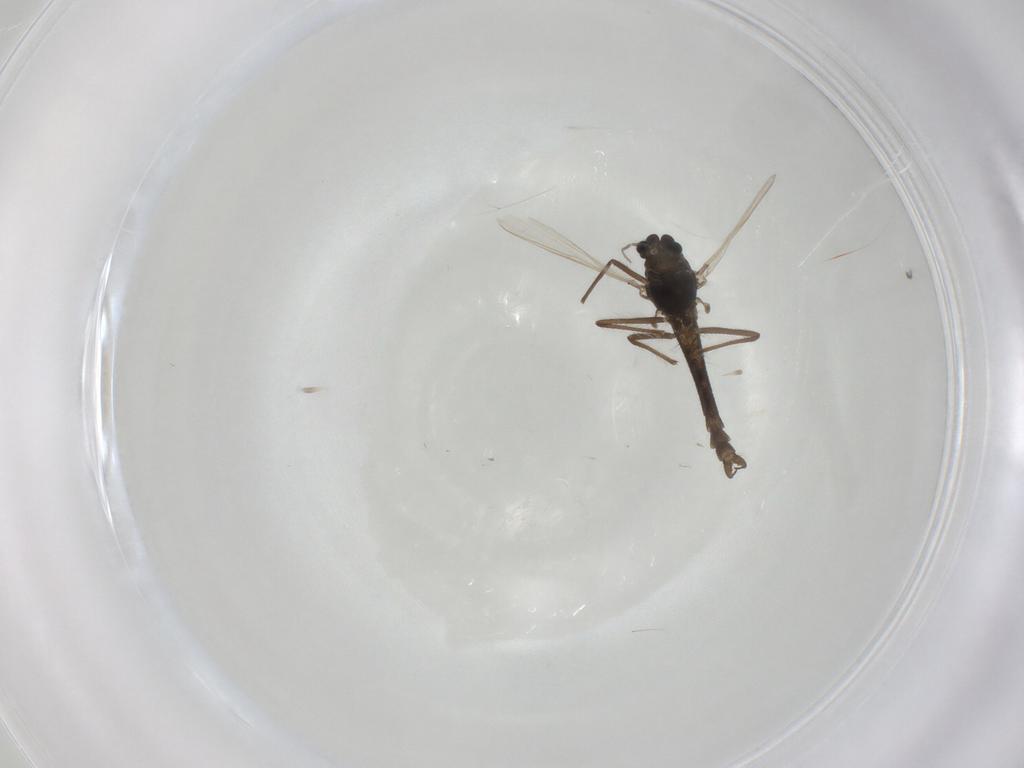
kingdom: Animalia
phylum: Arthropoda
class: Insecta
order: Diptera
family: Chironomidae
